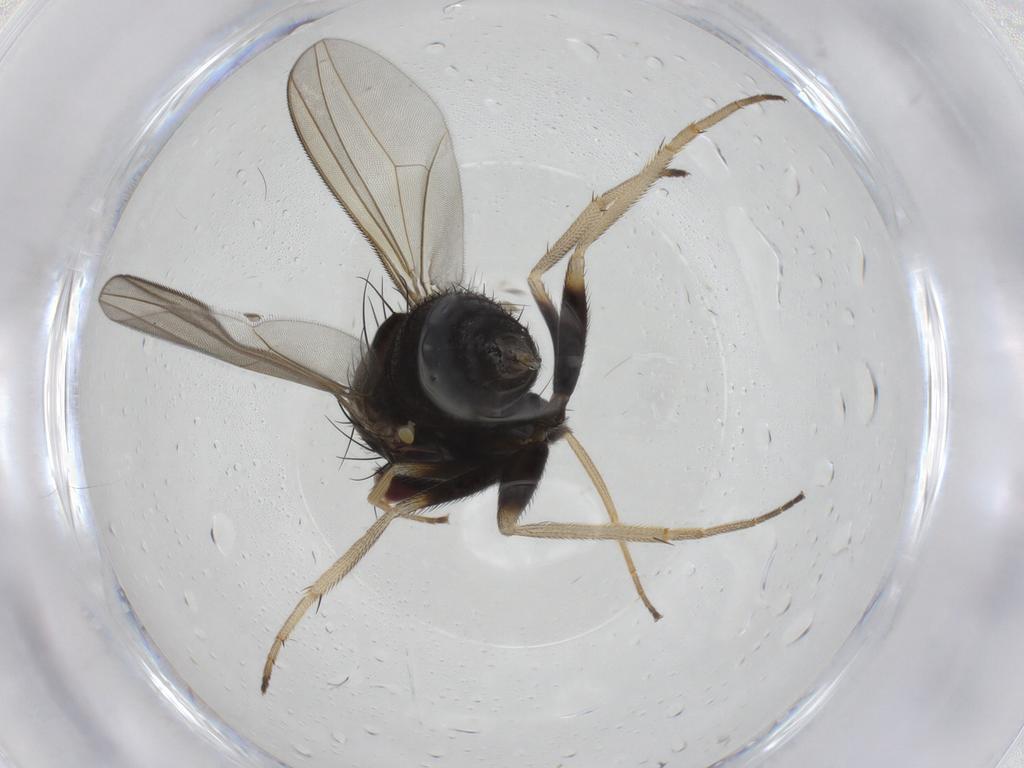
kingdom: Animalia
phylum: Arthropoda
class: Insecta
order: Diptera
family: Dolichopodidae
